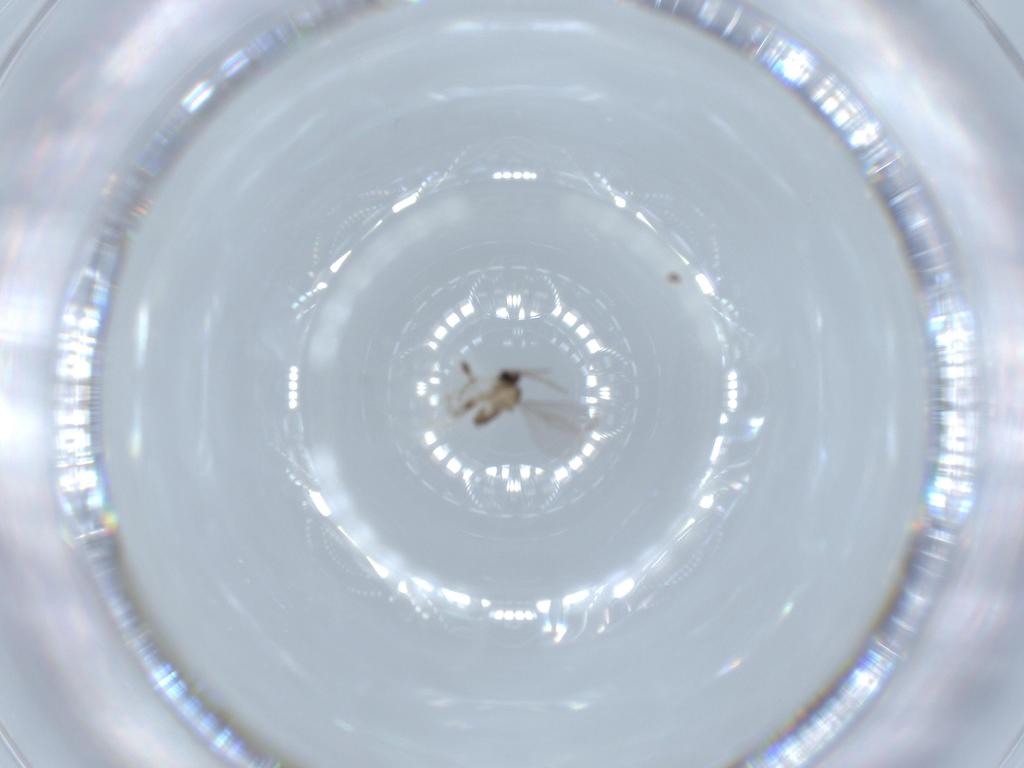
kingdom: Animalia
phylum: Arthropoda
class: Insecta
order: Diptera
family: Cecidomyiidae
